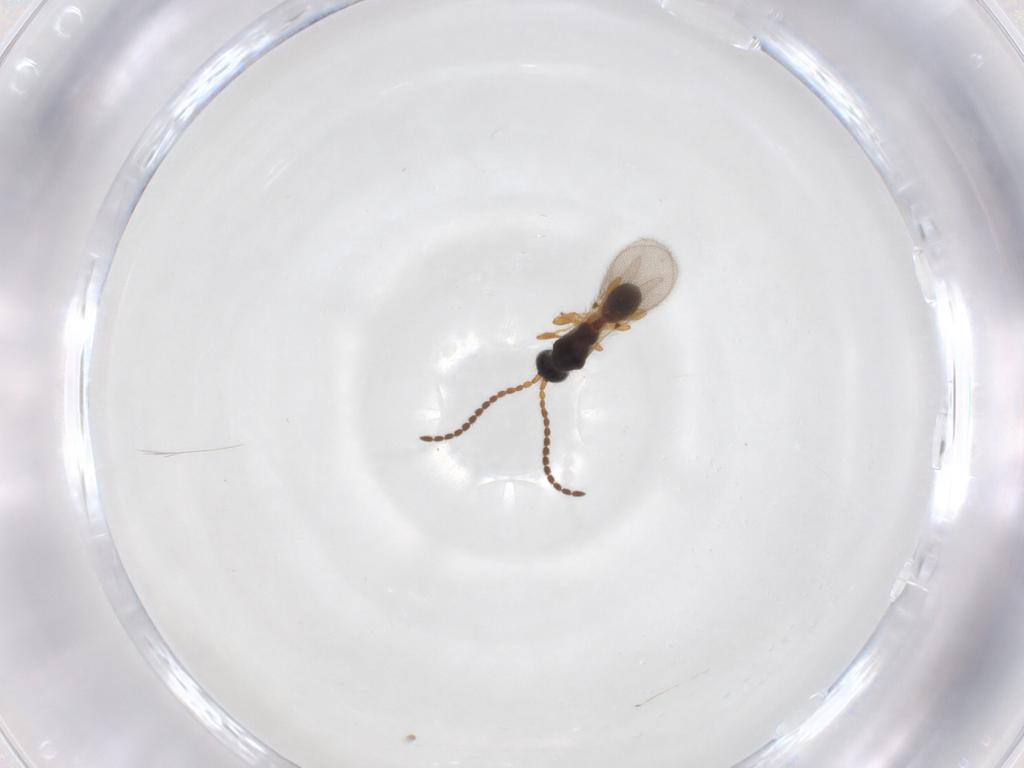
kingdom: Animalia
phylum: Arthropoda
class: Insecta
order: Hymenoptera
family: Diapriidae
